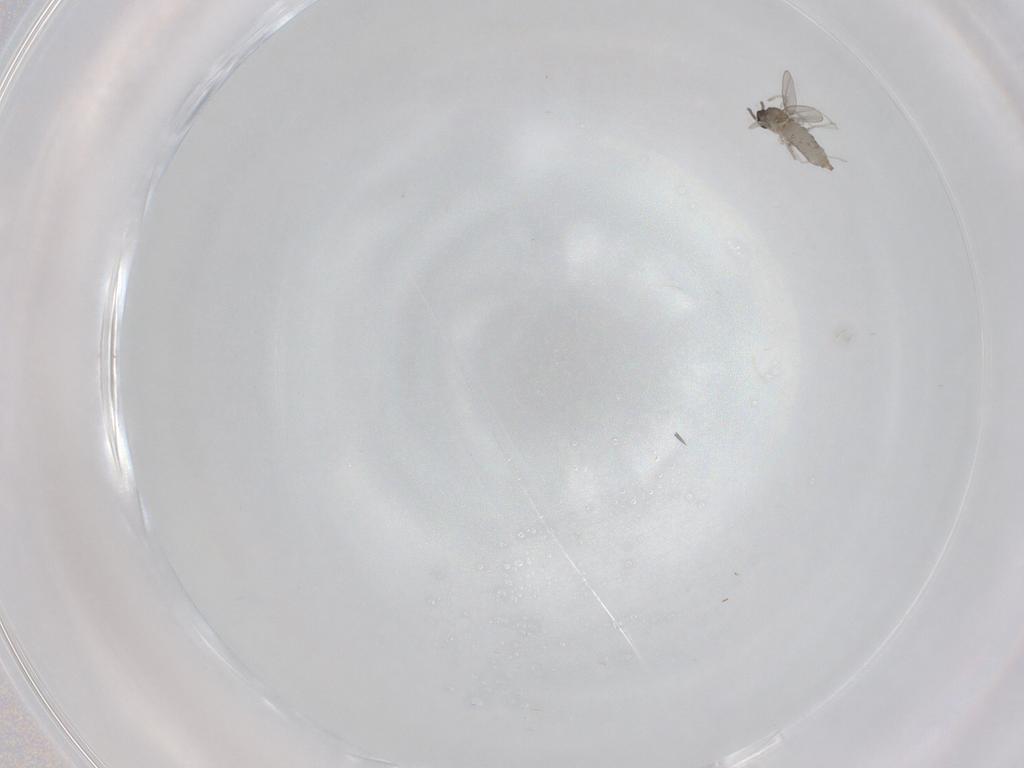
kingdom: Animalia
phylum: Arthropoda
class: Insecta
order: Diptera
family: Cecidomyiidae
